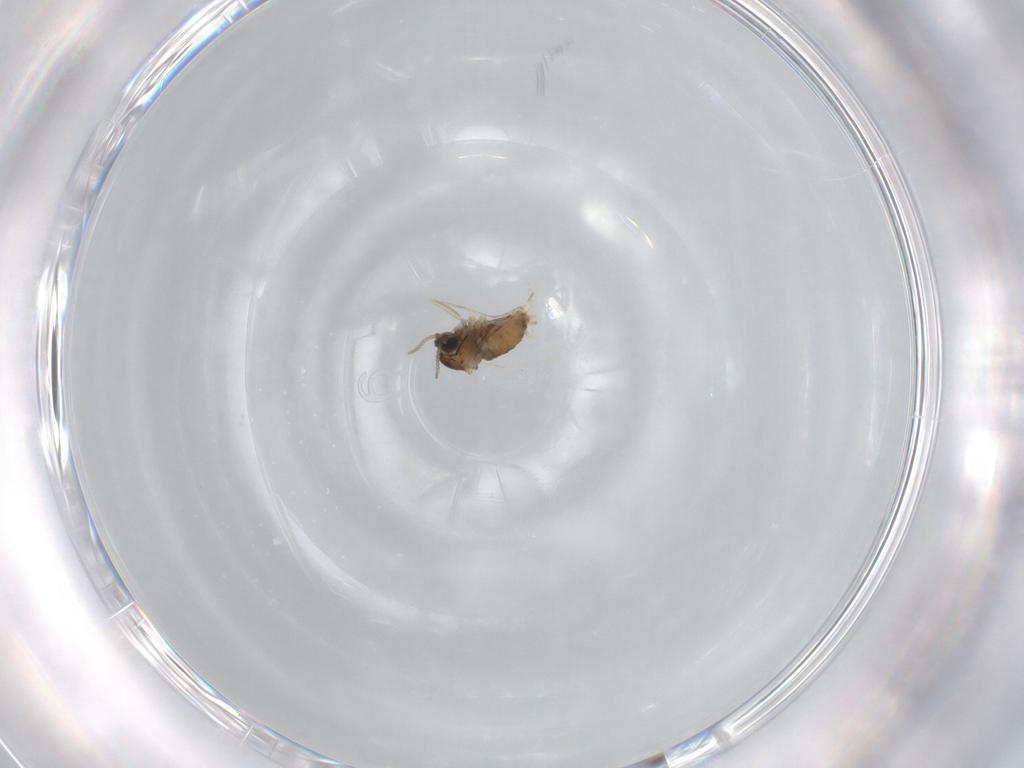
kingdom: Animalia
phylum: Arthropoda
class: Insecta
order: Diptera
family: Cecidomyiidae
